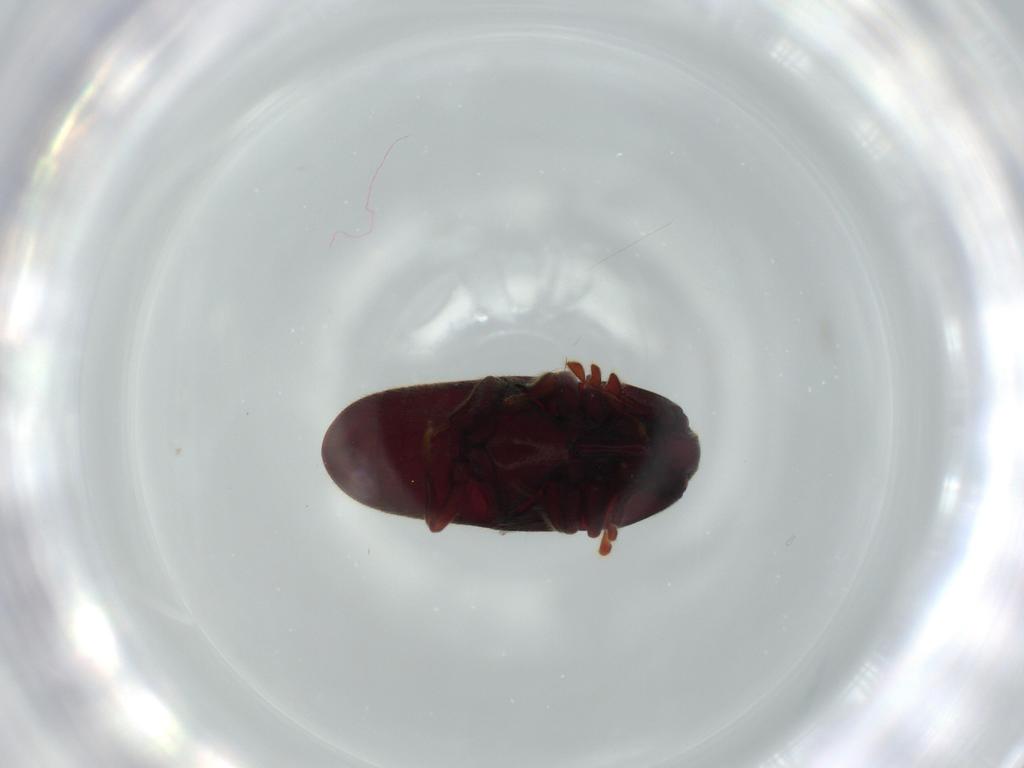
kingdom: Animalia
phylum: Arthropoda
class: Insecta
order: Coleoptera
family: Throscidae
